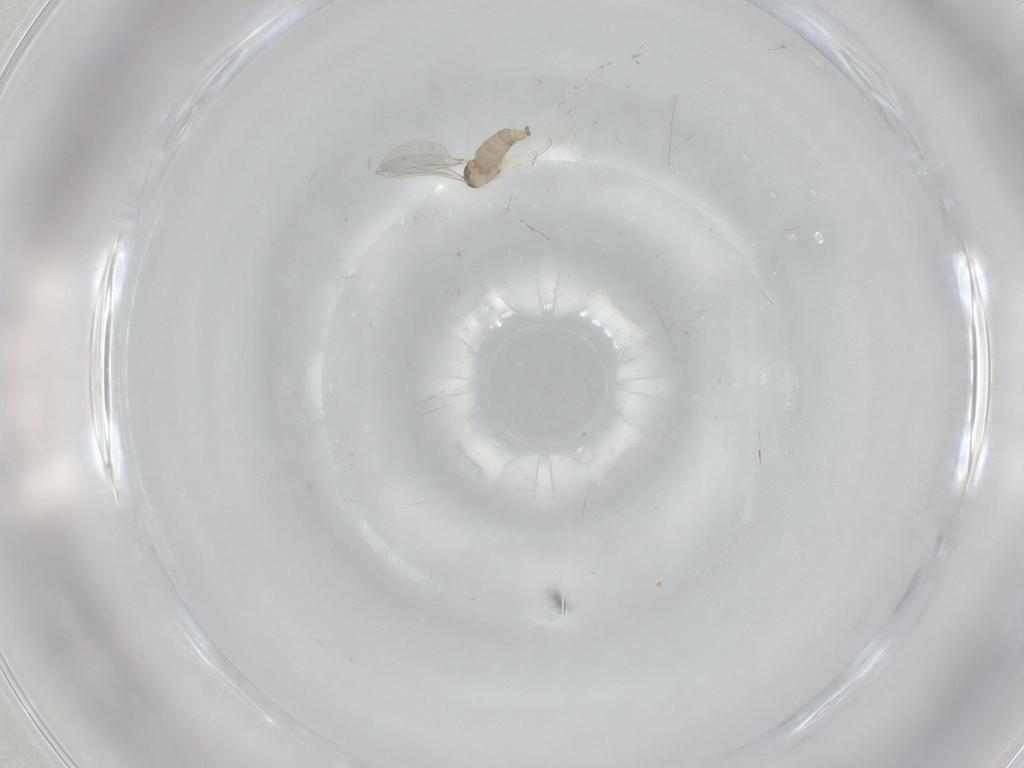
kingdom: Animalia
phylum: Arthropoda
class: Insecta
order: Diptera
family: Cecidomyiidae
